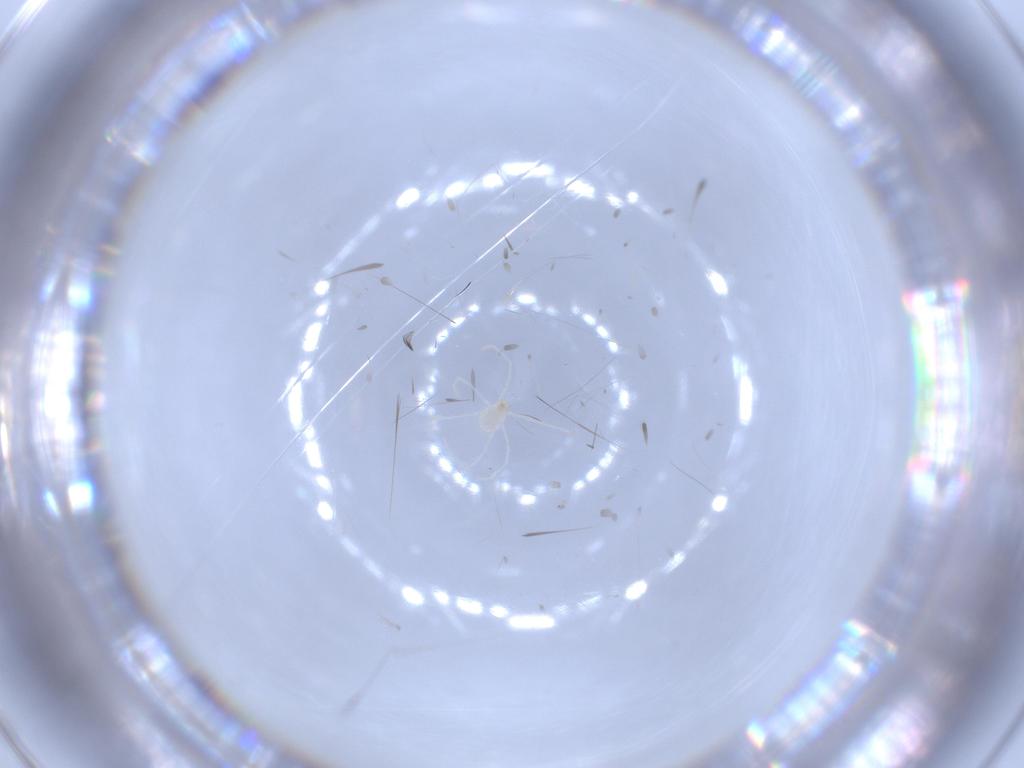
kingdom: Animalia
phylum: Arthropoda
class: Arachnida
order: Trombidiformes
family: Erythraeidae
